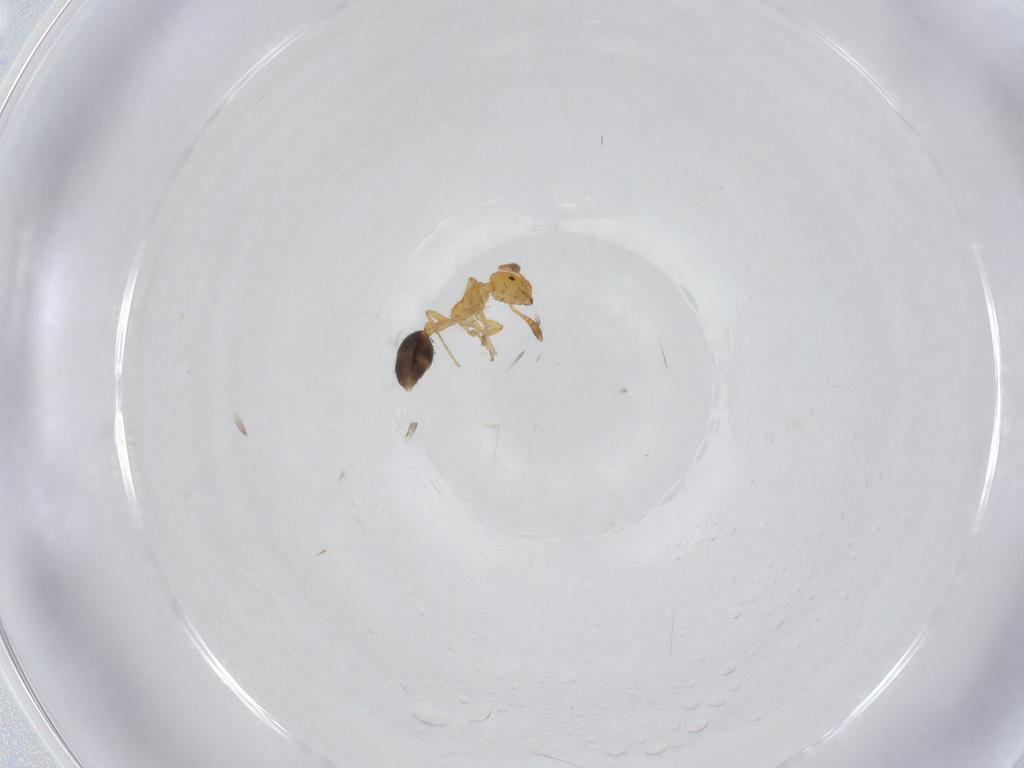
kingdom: Animalia
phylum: Arthropoda
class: Insecta
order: Hymenoptera
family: Formicidae
